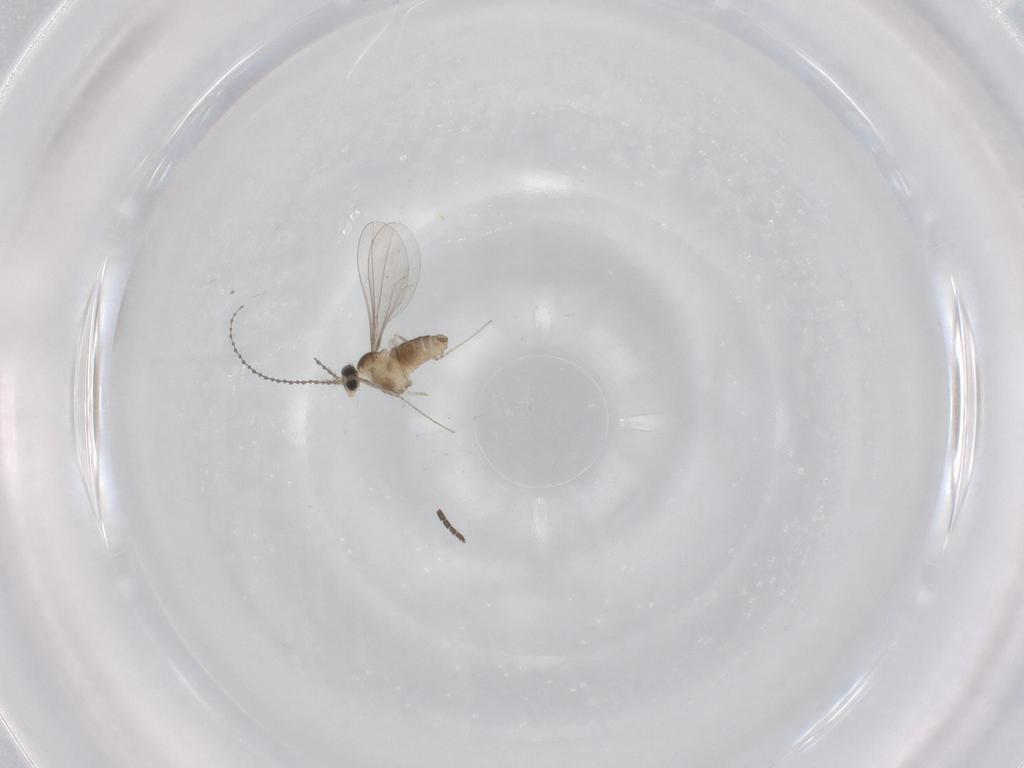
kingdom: Animalia
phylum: Arthropoda
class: Insecta
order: Diptera
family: Sciaridae
